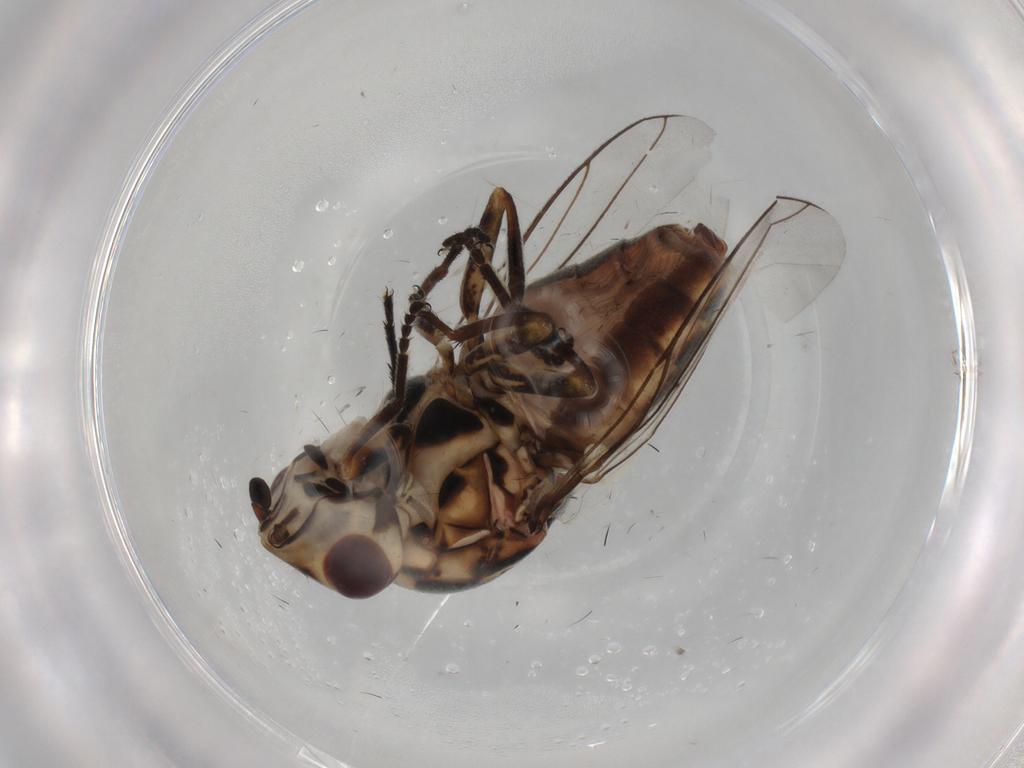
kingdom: Animalia
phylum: Arthropoda
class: Insecta
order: Diptera
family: Chloropidae
